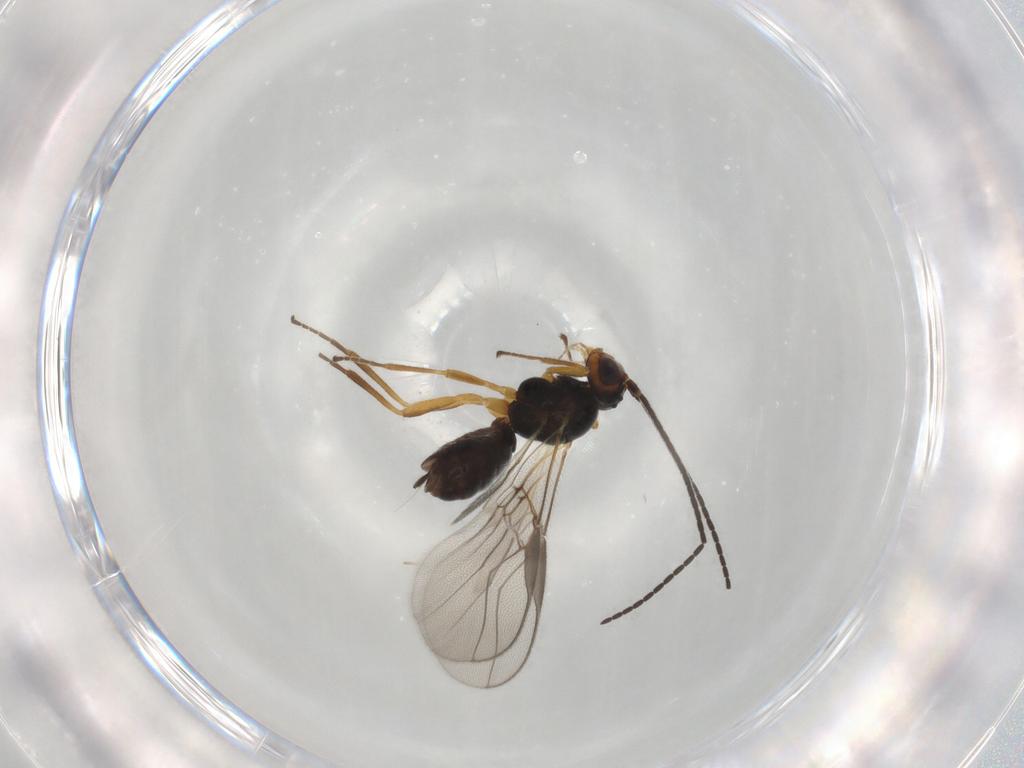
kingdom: Animalia
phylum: Arthropoda
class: Insecta
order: Hymenoptera
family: Braconidae
